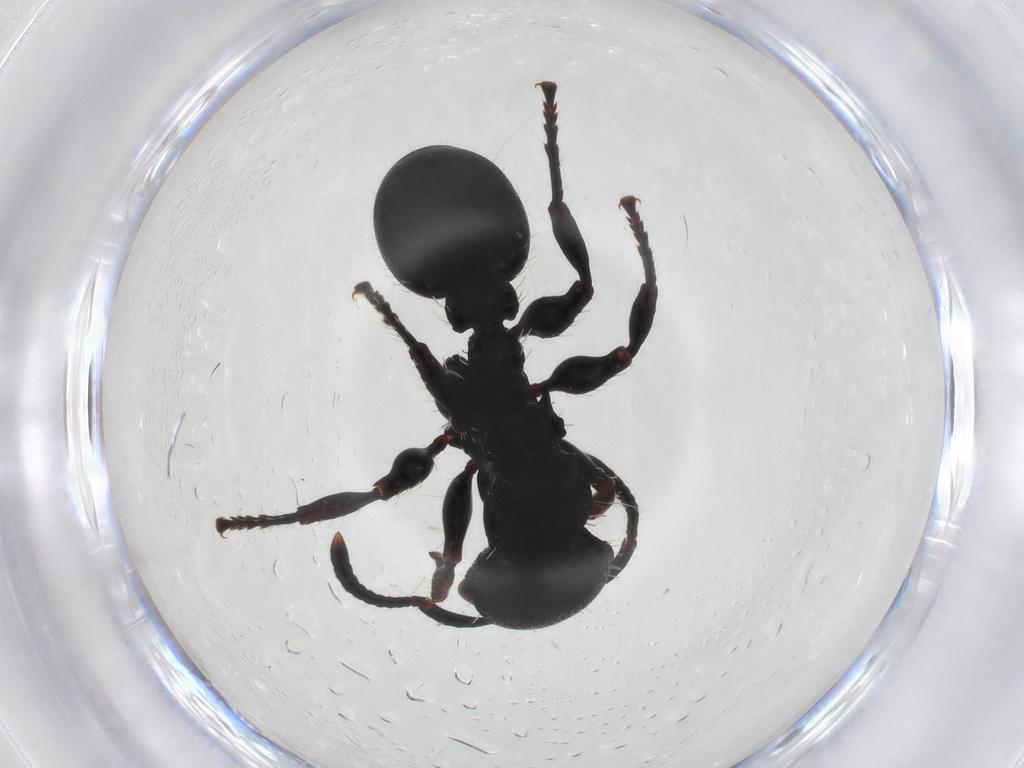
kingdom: Animalia
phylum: Arthropoda
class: Insecta
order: Hymenoptera
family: Formicidae
